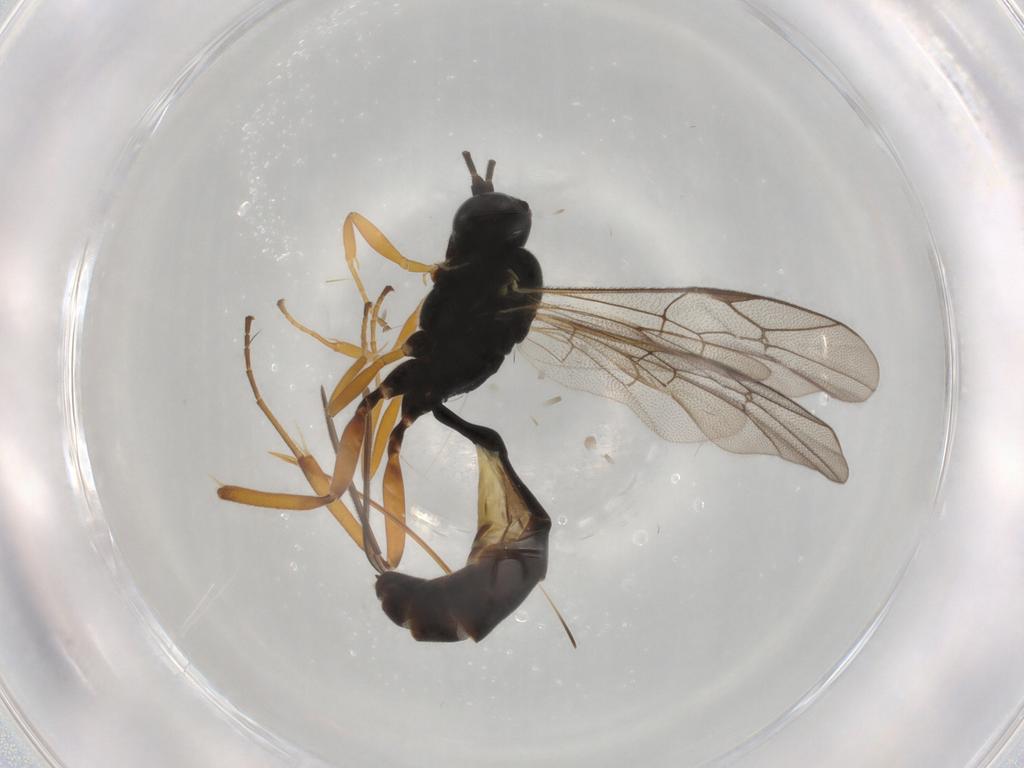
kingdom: Animalia
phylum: Arthropoda
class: Insecta
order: Hymenoptera
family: Ichneumonidae
